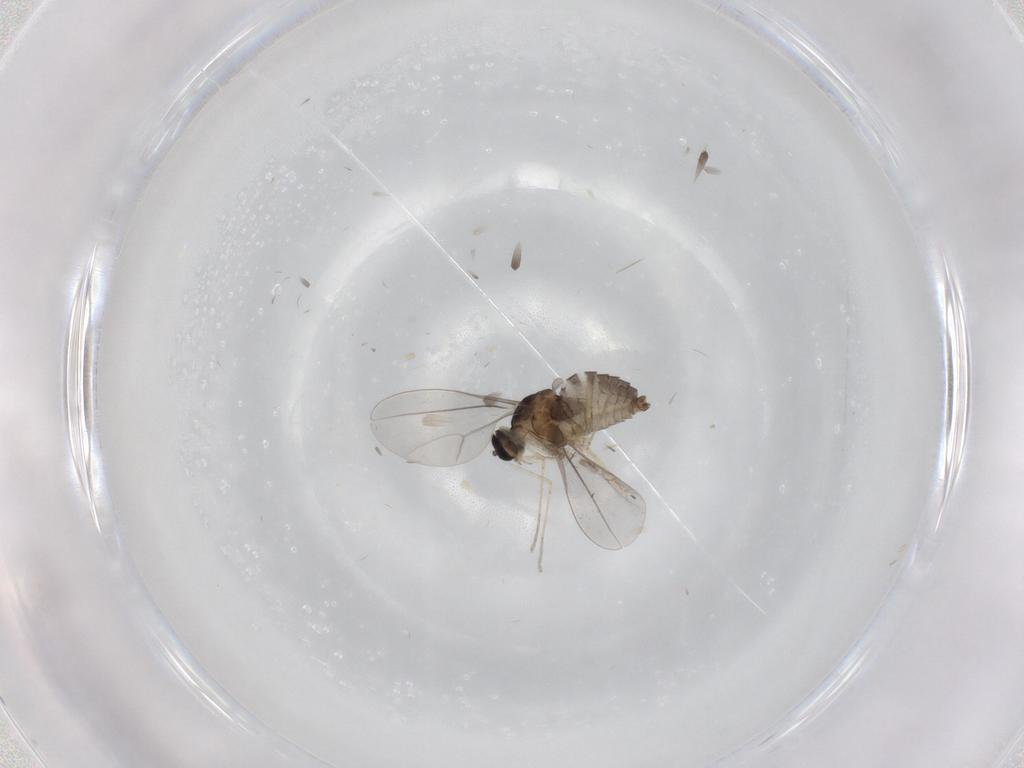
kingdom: Animalia
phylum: Arthropoda
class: Insecta
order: Diptera
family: Cecidomyiidae
